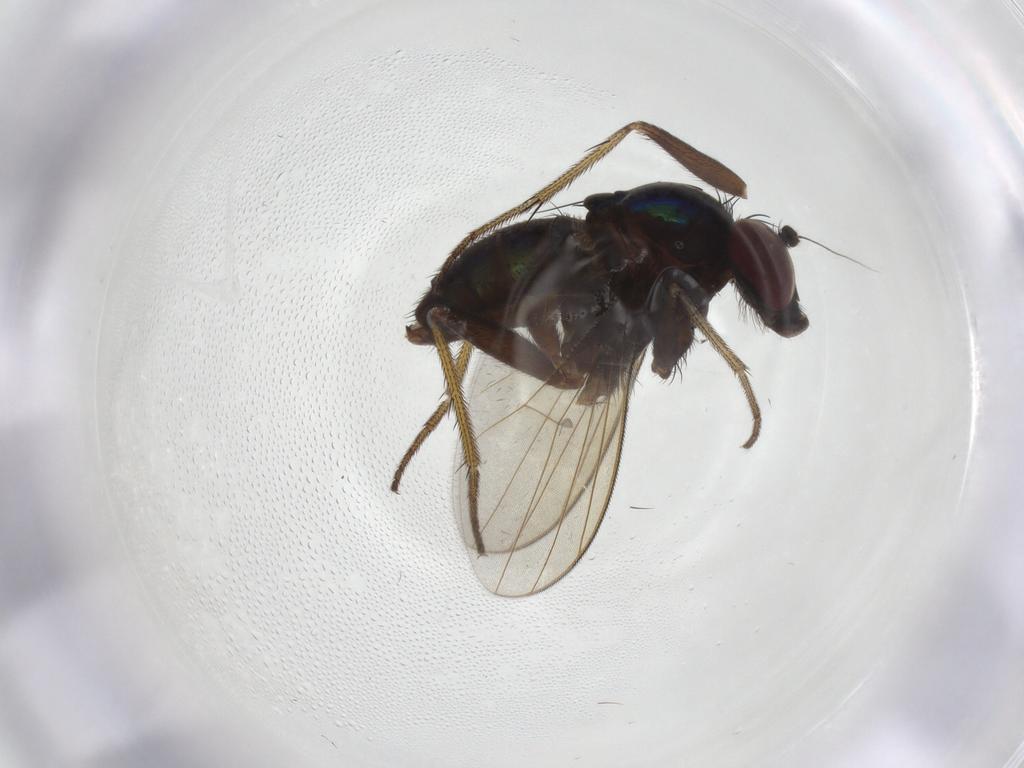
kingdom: Animalia
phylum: Arthropoda
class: Insecta
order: Diptera
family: Dolichopodidae
